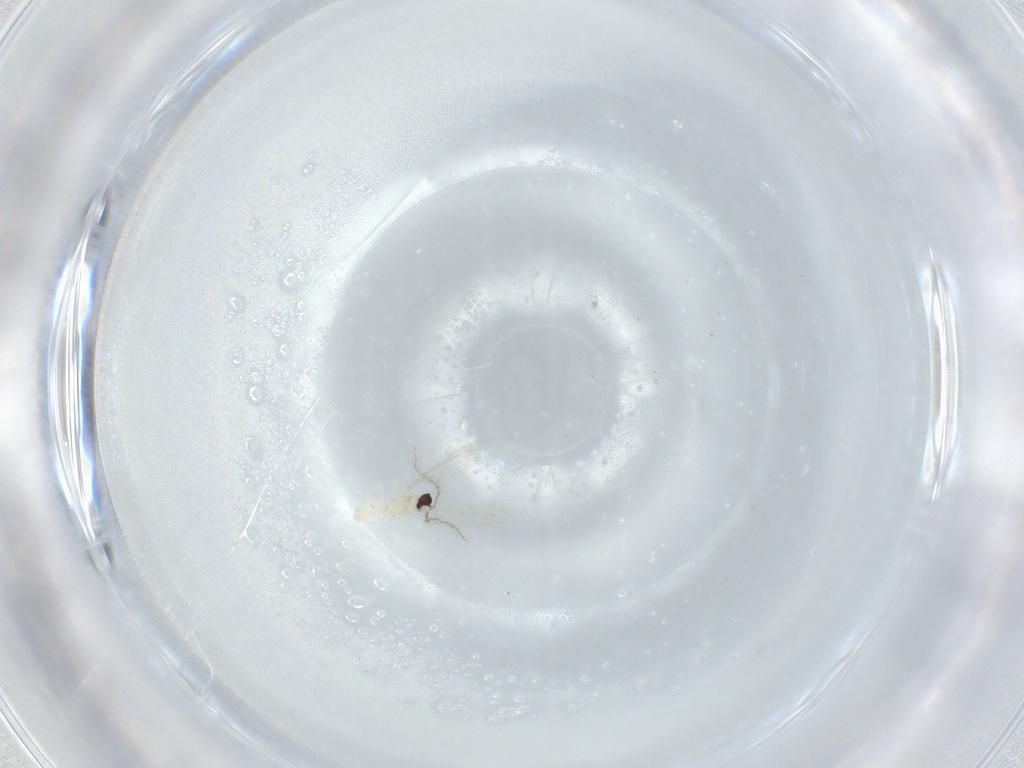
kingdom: Animalia
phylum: Arthropoda
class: Insecta
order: Diptera
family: Cecidomyiidae
